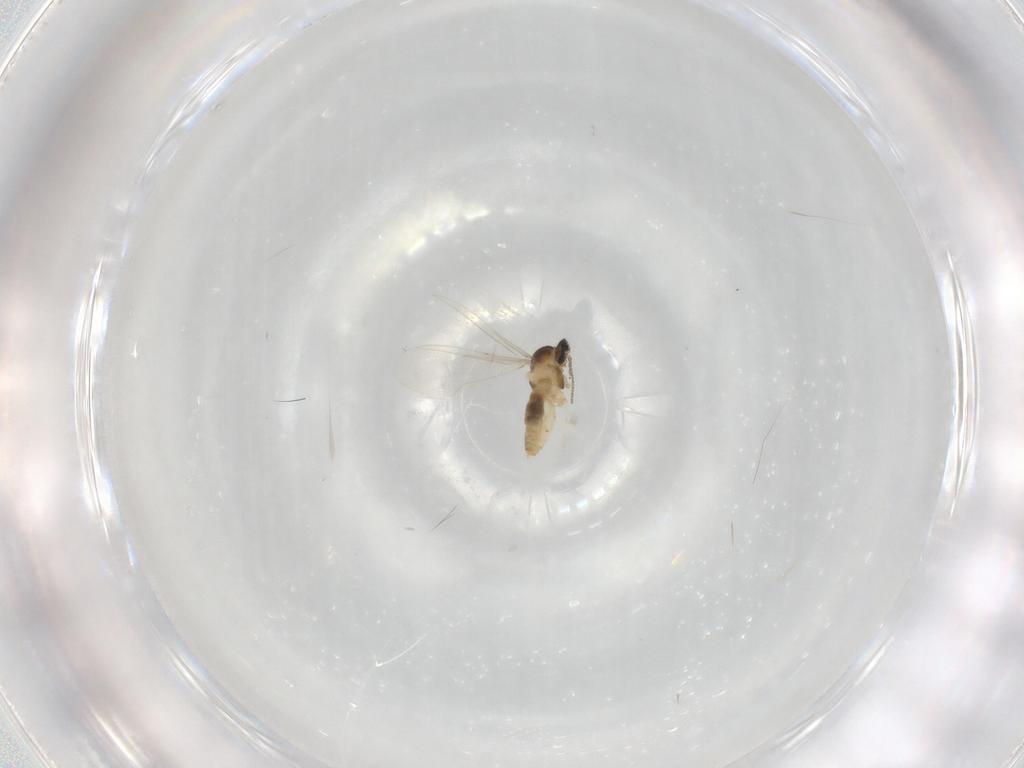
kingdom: Animalia
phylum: Arthropoda
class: Insecta
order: Diptera
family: Cecidomyiidae
